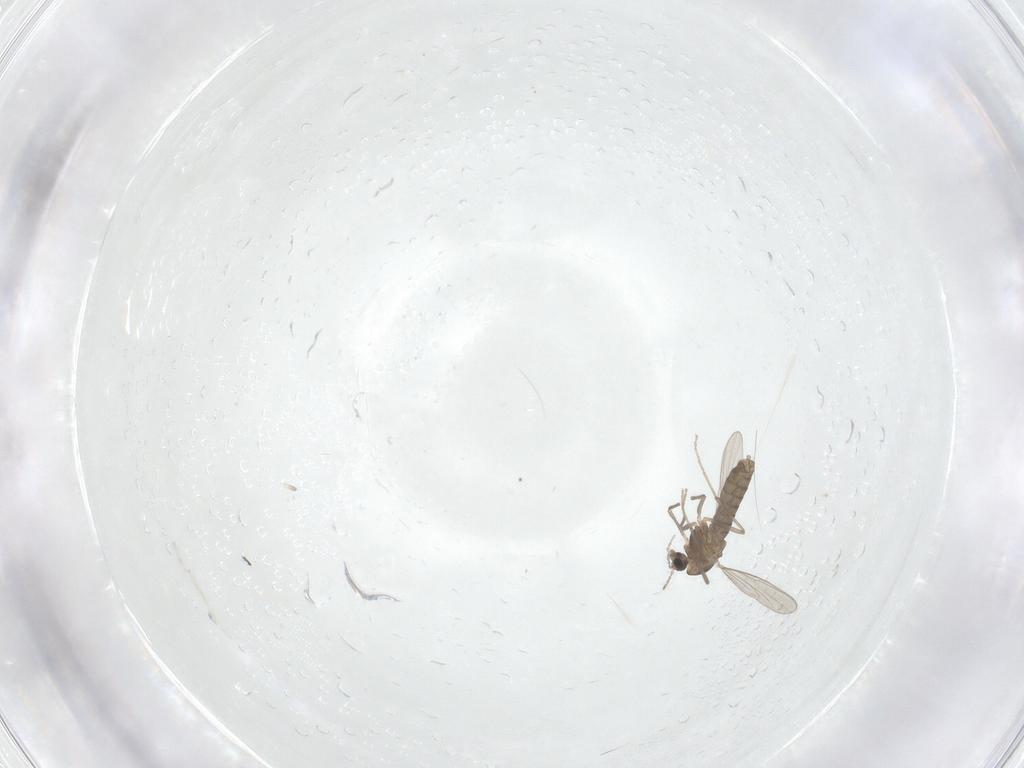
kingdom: Animalia
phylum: Arthropoda
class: Insecta
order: Diptera
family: Chironomidae
